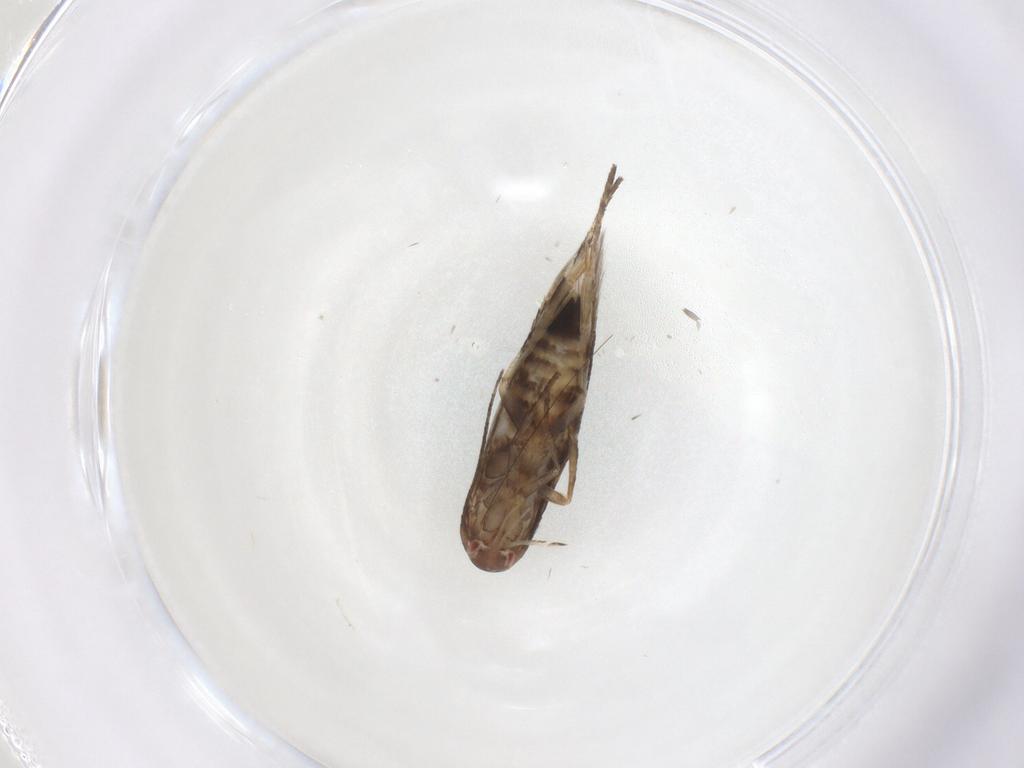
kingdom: Animalia
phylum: Arthropoda
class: Insecta
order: Lepidoptera
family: Momphidae
